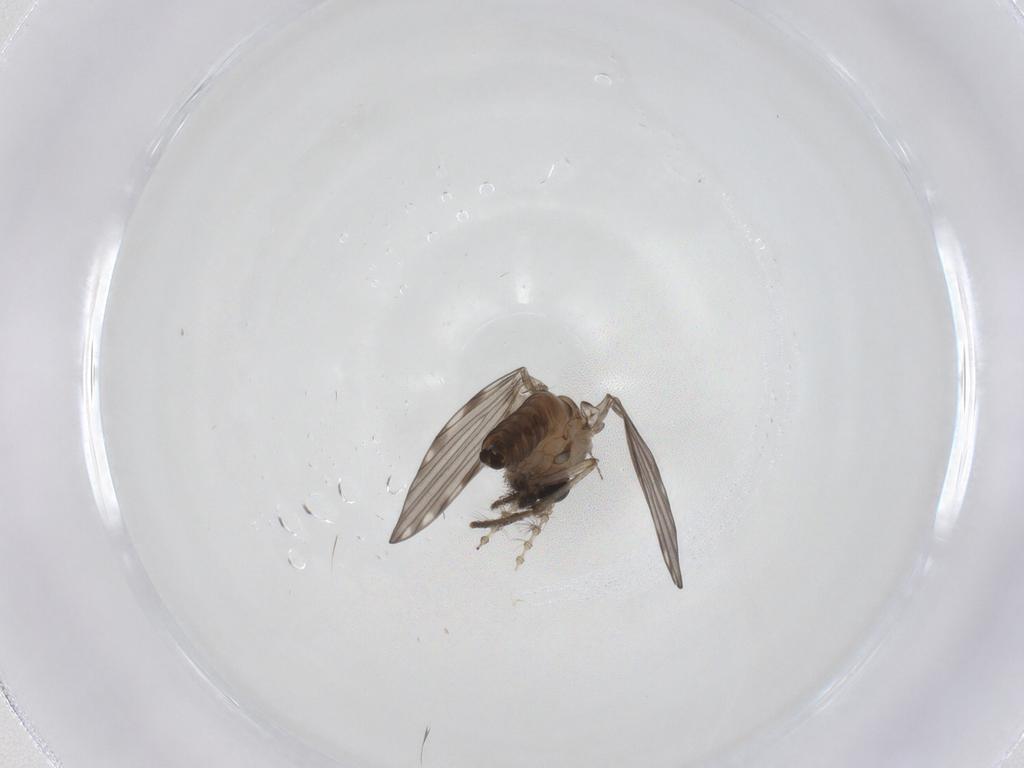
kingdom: Animalia
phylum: Arthropoda
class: Insecta
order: Diptera
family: Psychodidae
